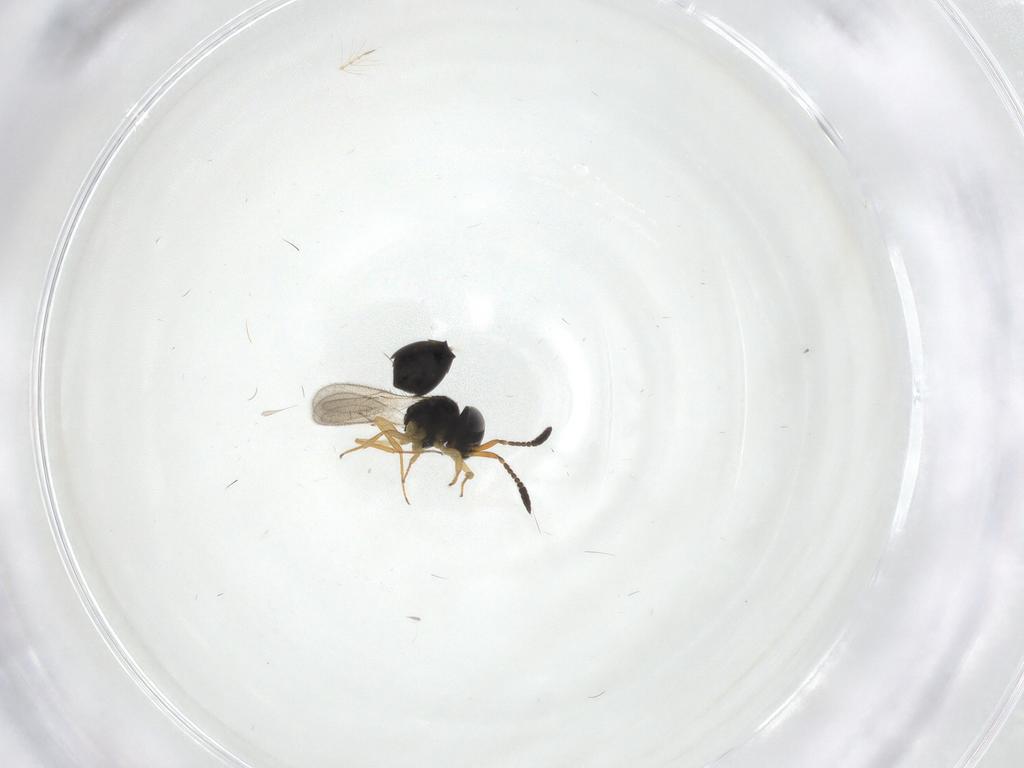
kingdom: Animalia
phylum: Arthropoda
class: Insecta
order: Hymenoptera
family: Scelionidae
